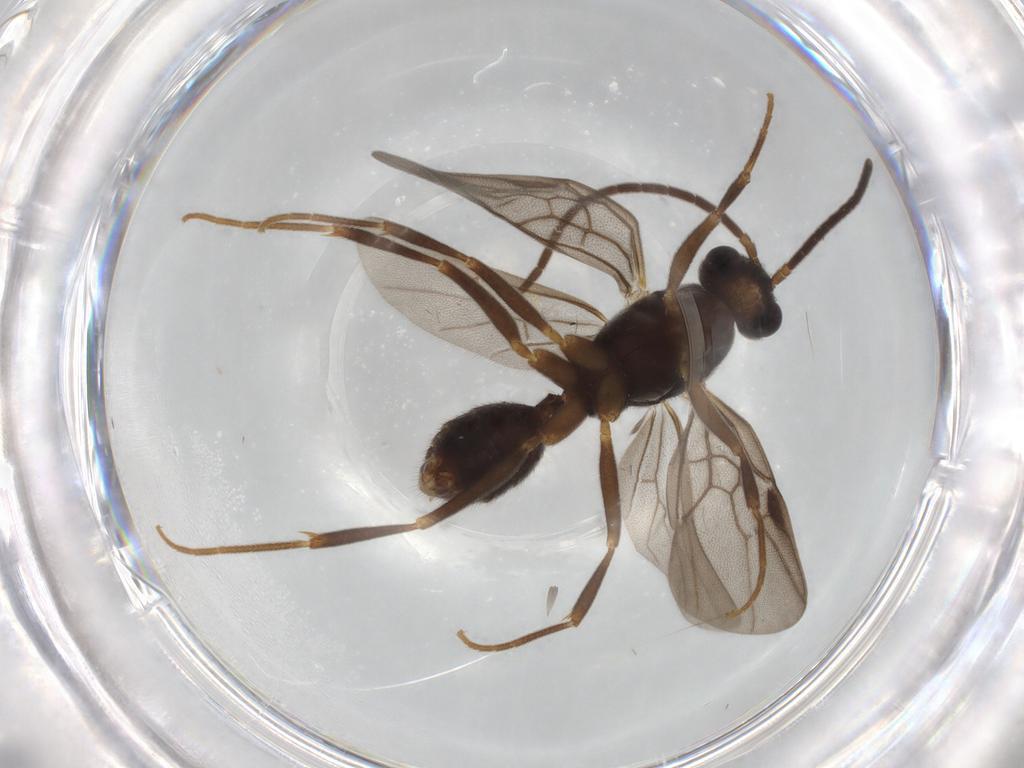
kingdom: Animalia
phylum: Arthropoda
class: Insecta
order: Hymenoptera
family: Formicidae
